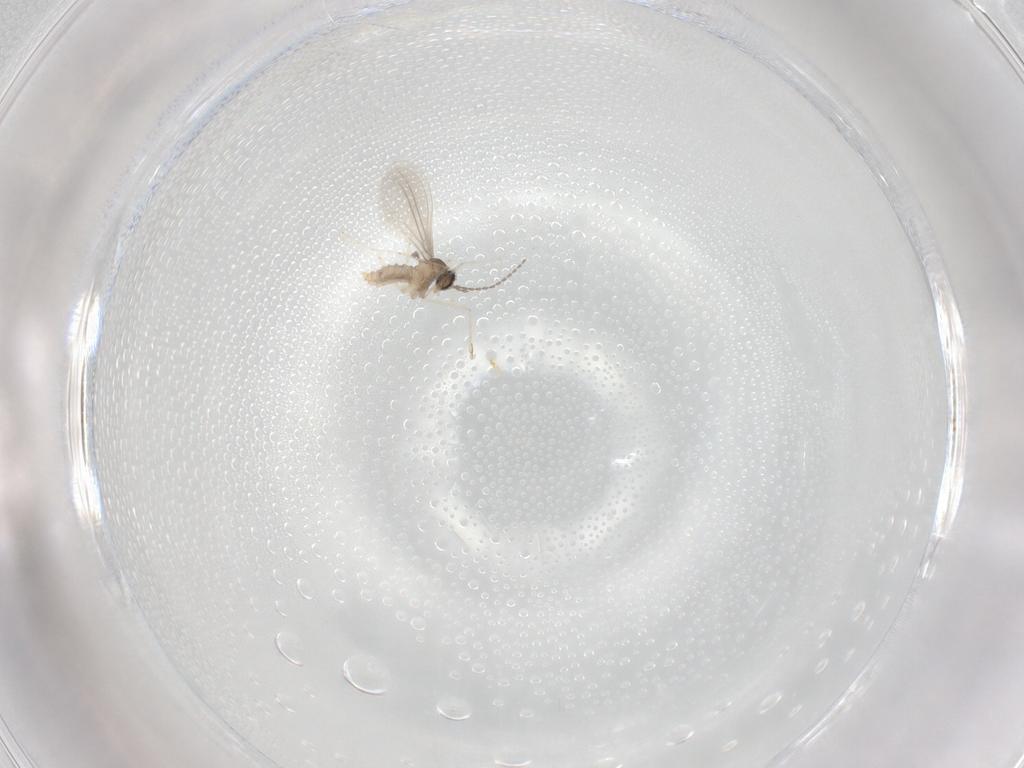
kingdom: Animalia
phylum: Arthropoda
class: Insecta
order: Diptera
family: Cecidomyiidae
